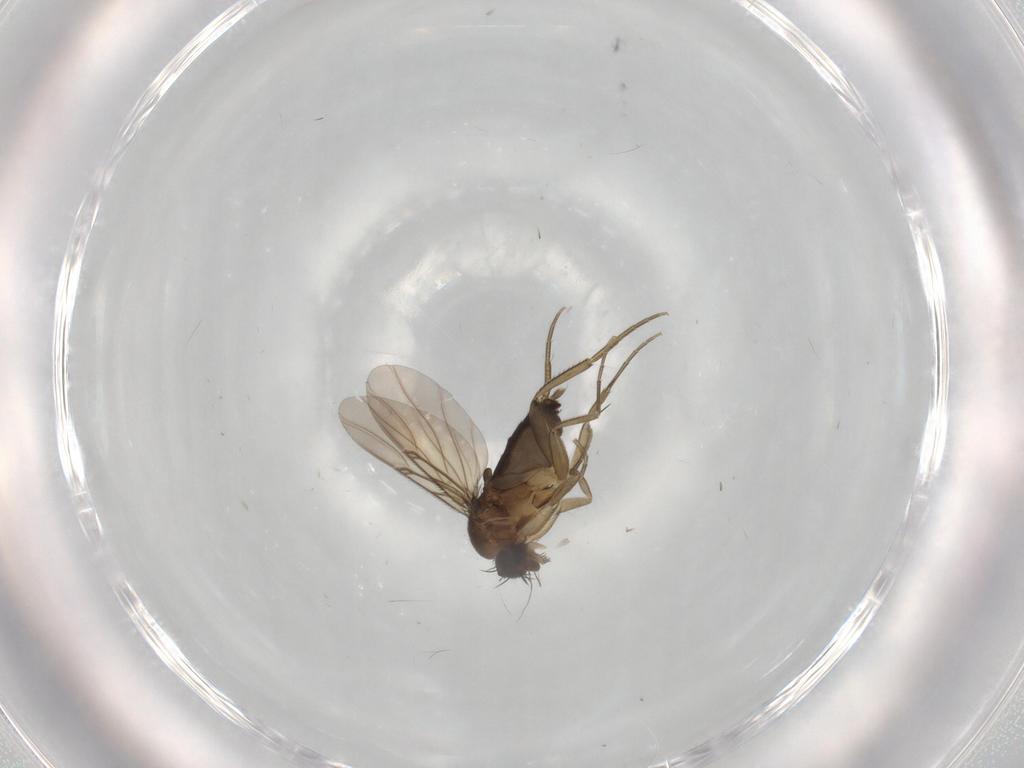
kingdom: Animalia
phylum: Arthropoda
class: Insecta
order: Diptera
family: Phoridae
